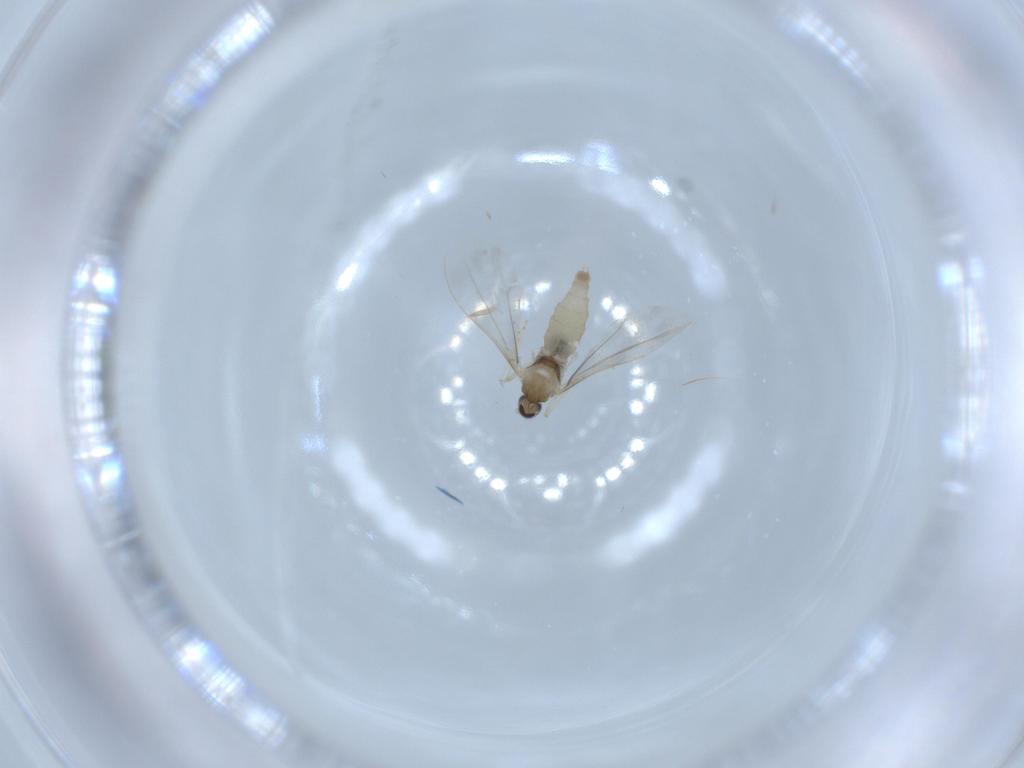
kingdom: Animalia
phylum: Arthropoda
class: Insecta
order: Diptera
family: Cecidomyiidae
